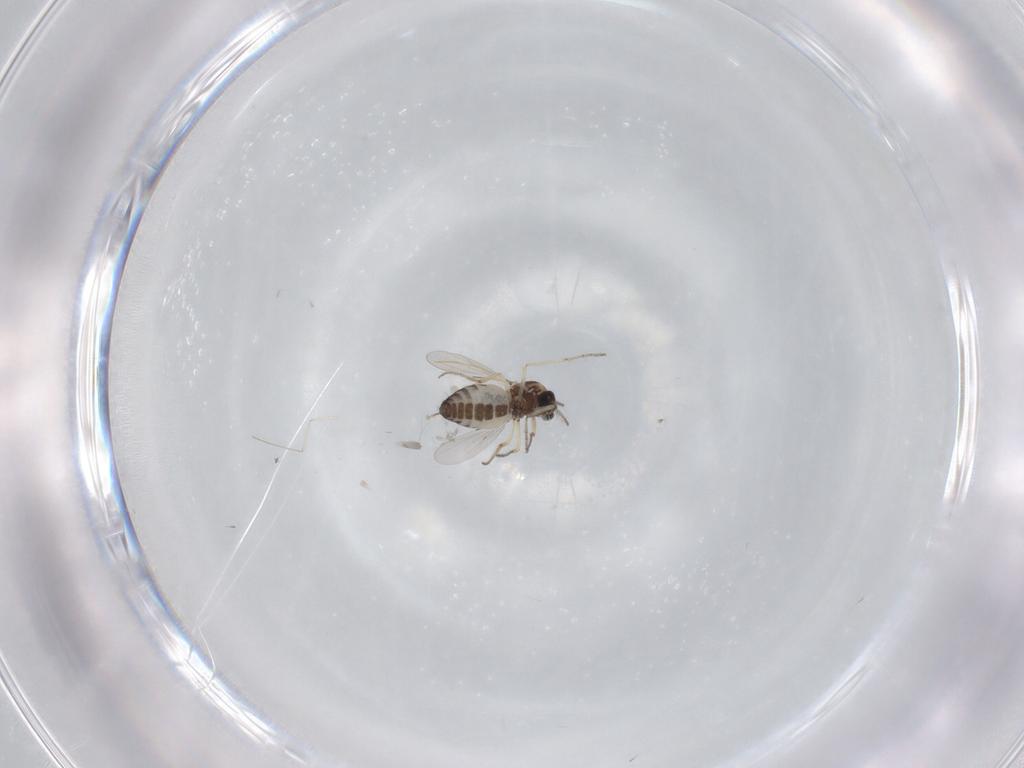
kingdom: Animalia
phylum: Arthropoda
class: Insecta
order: Diptera
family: Ceratopogonidae
